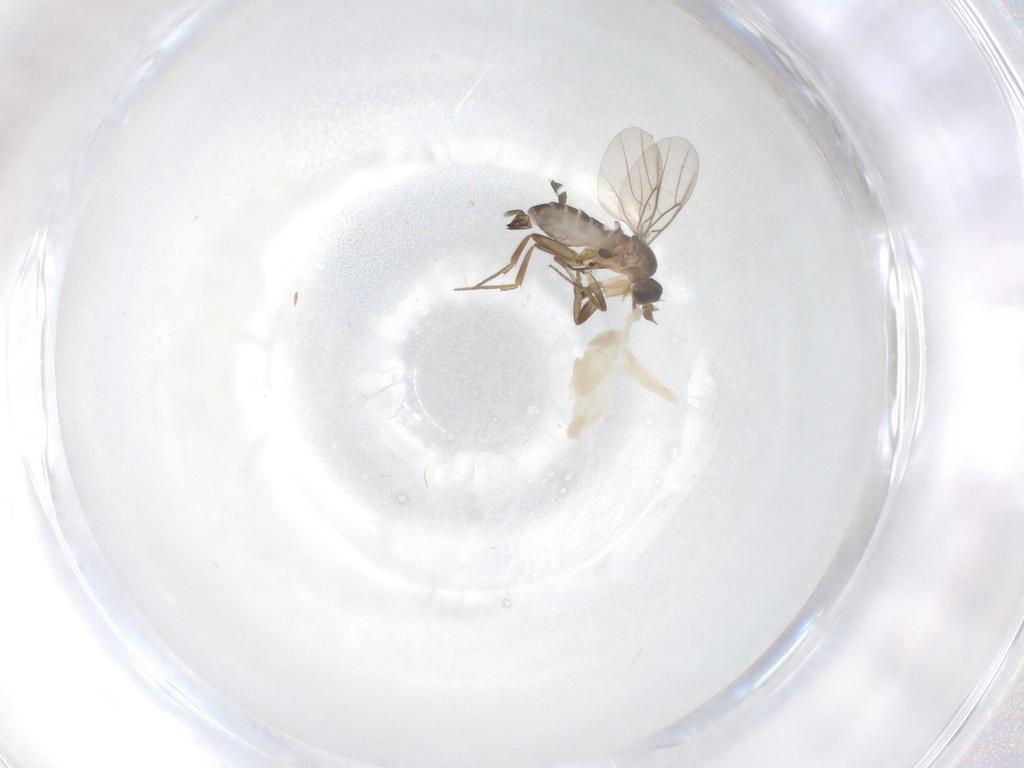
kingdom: Animalia
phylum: Arthropoda
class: Insecta
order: Diptera
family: Phoridae
